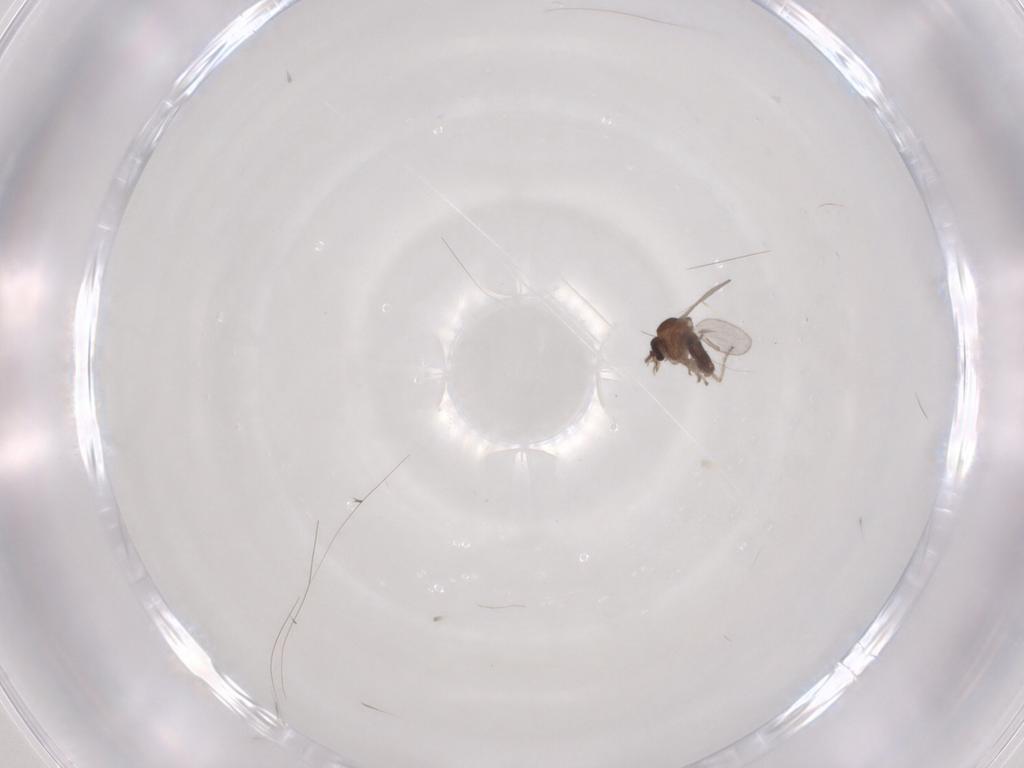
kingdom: Animalia
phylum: Arthropoda
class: Insecta
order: Diptera
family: Ceratopogonidae
